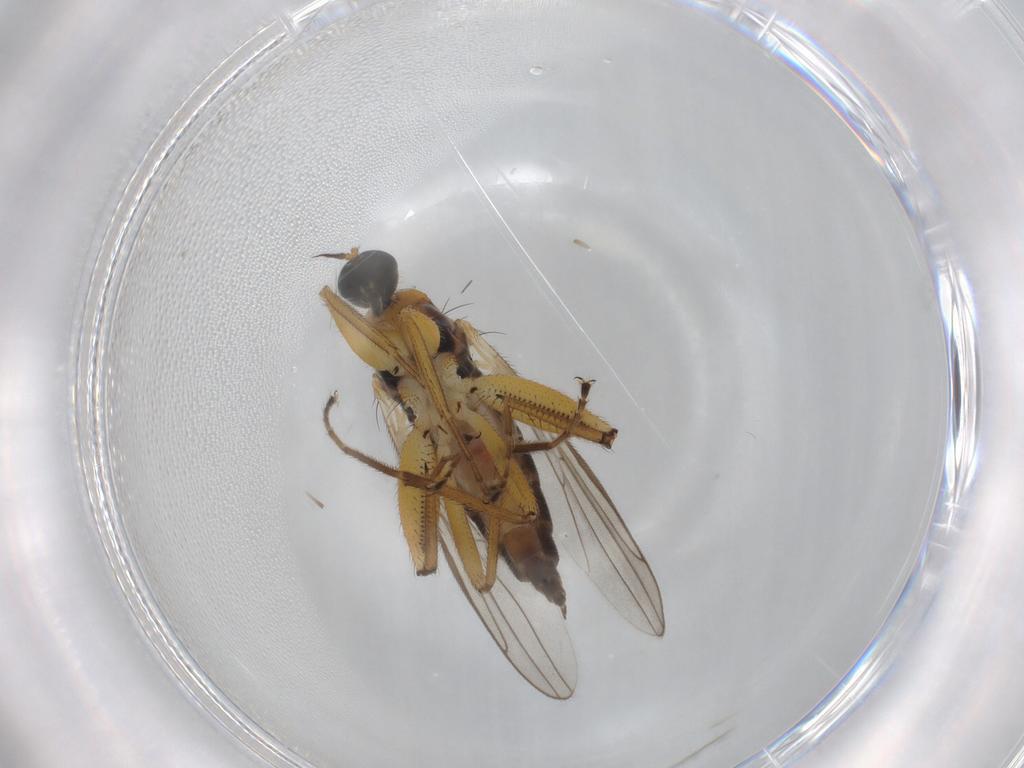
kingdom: Animalia
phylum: Arthropoda
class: Insecta
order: Diptera
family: Hybotidae
